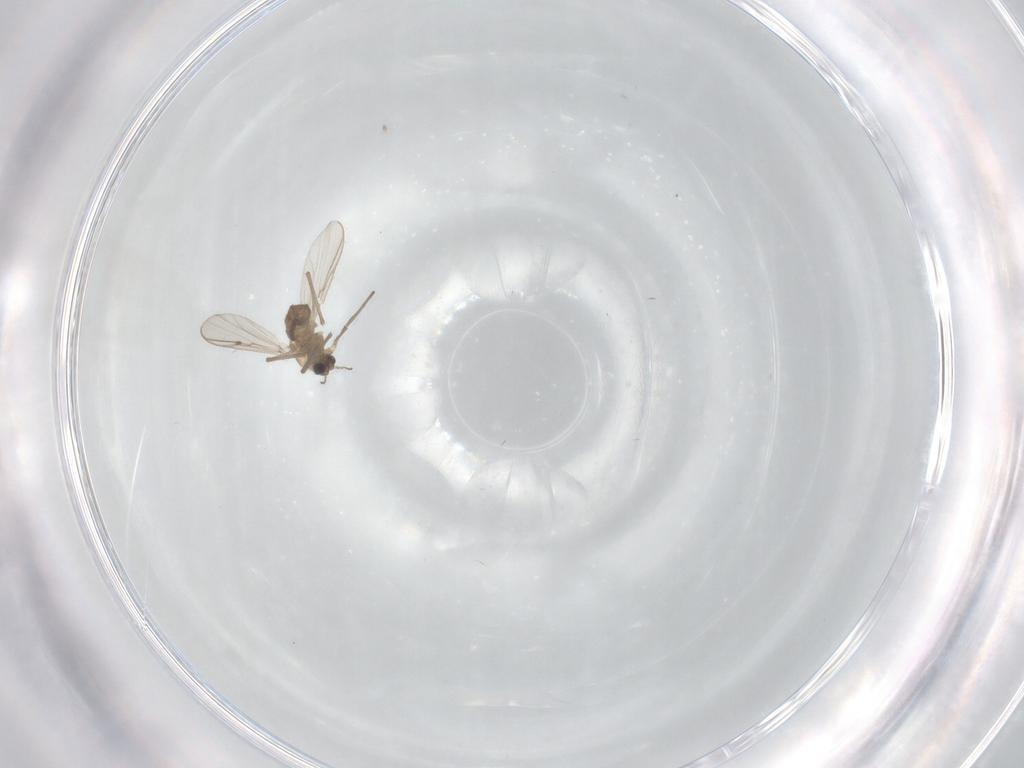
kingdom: Animalia
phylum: Arthropoda
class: Insecta
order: Diptera
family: Chironomidae
